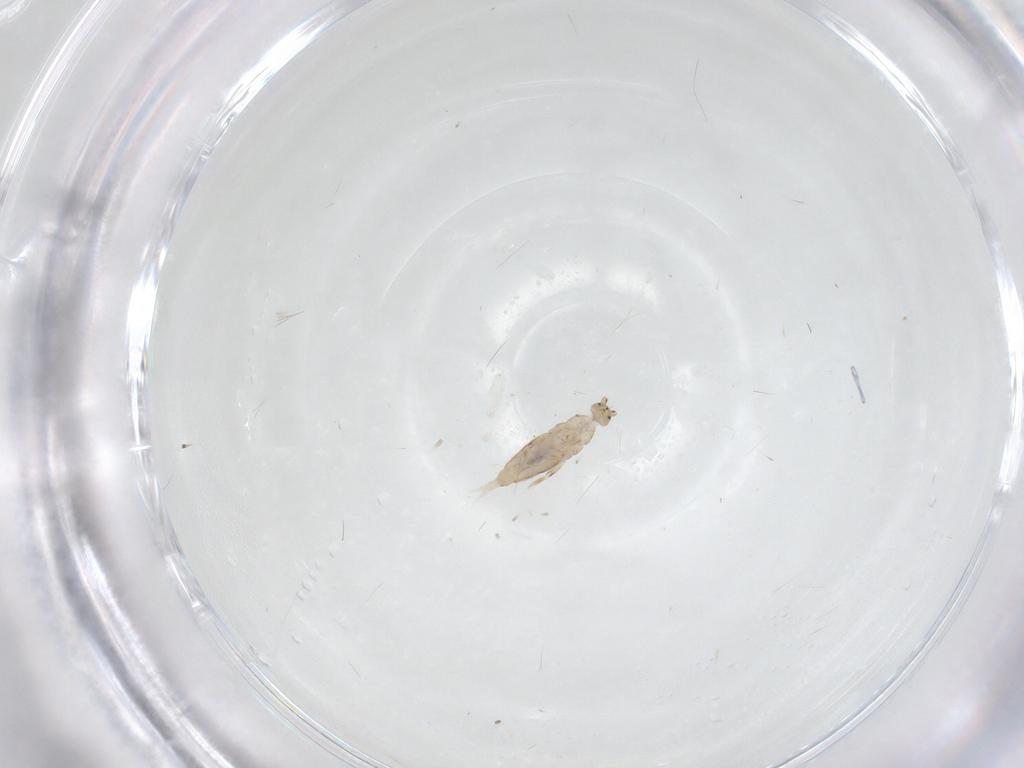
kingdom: Animalia
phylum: Arthropoda
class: Collembola
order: Entomobryomorpha
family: Entomobryidae
